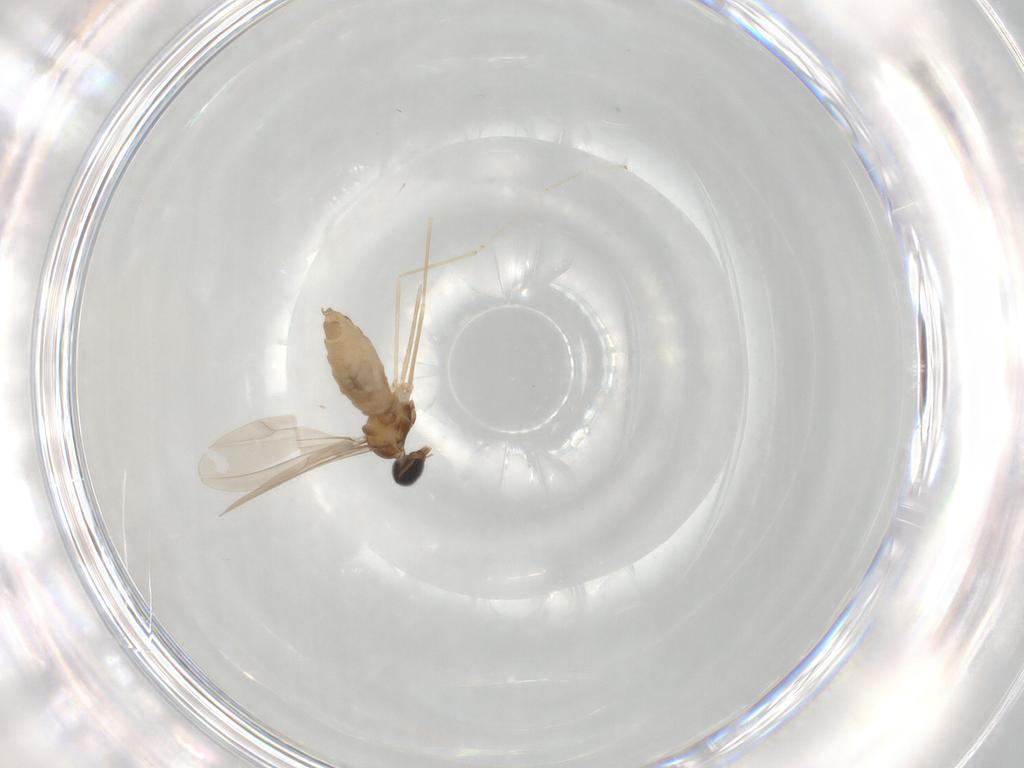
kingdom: Animalia
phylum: Arthropoda
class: Insecta
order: Diptera
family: Cecidomyiidae
